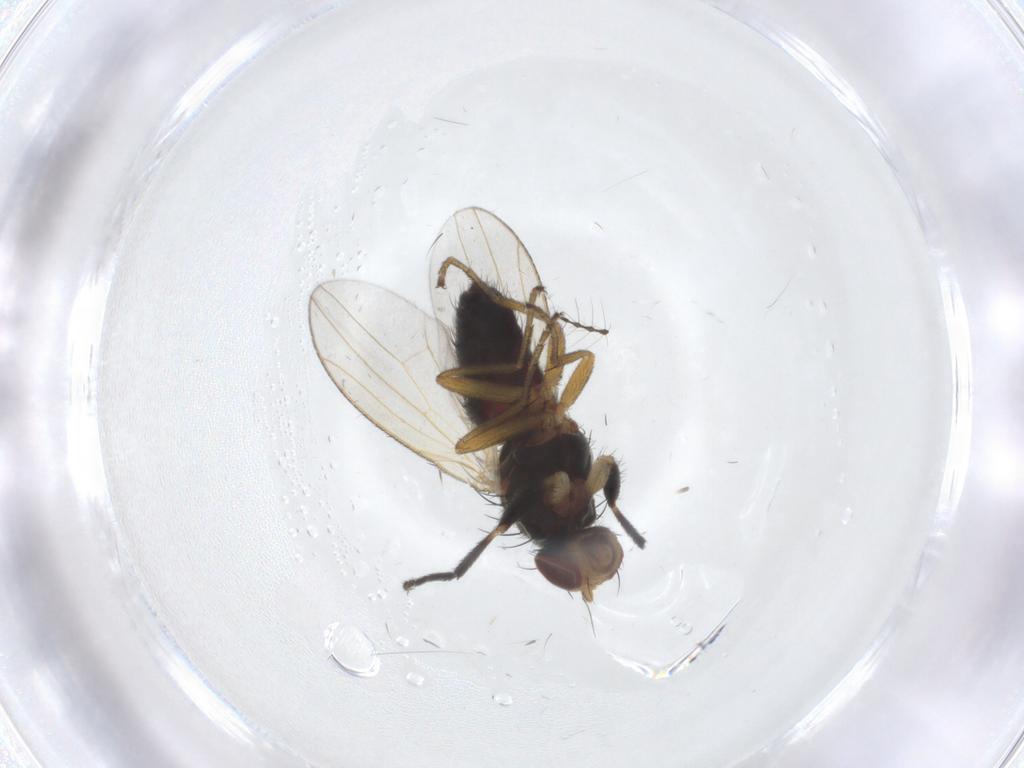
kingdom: Animalia
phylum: Arthropoda
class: Insecta
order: Diptera
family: Heleomyzidae
